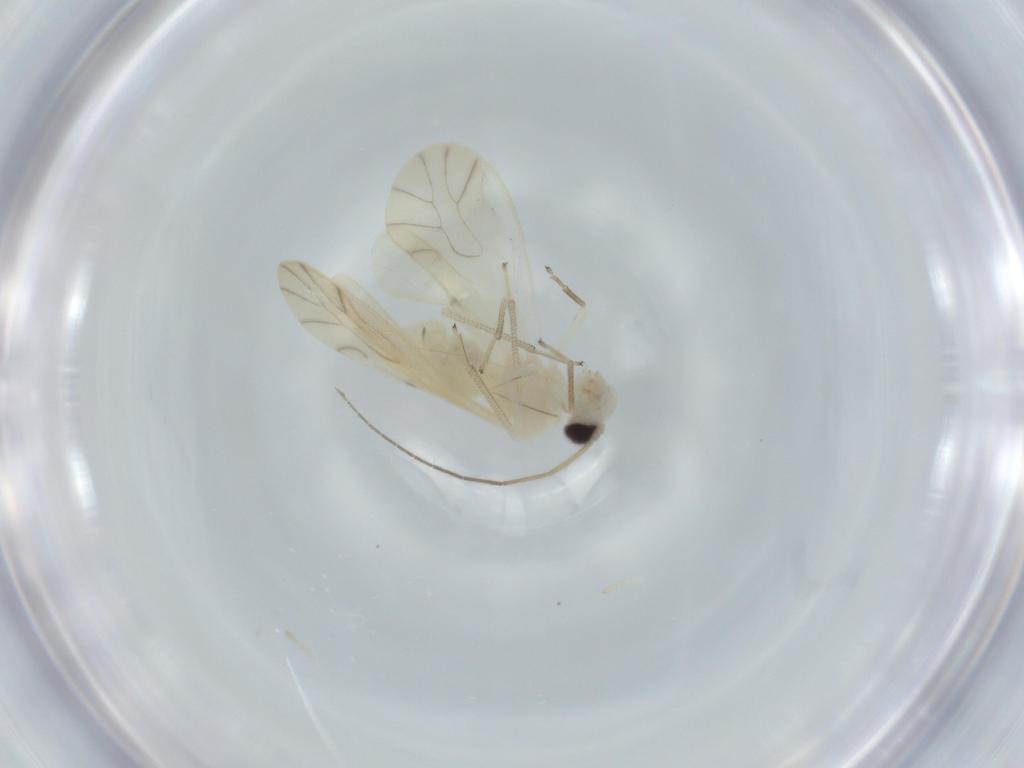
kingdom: Animalia
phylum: Arthropoda
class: Insecta
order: Psocodea
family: Caeciliusidae
